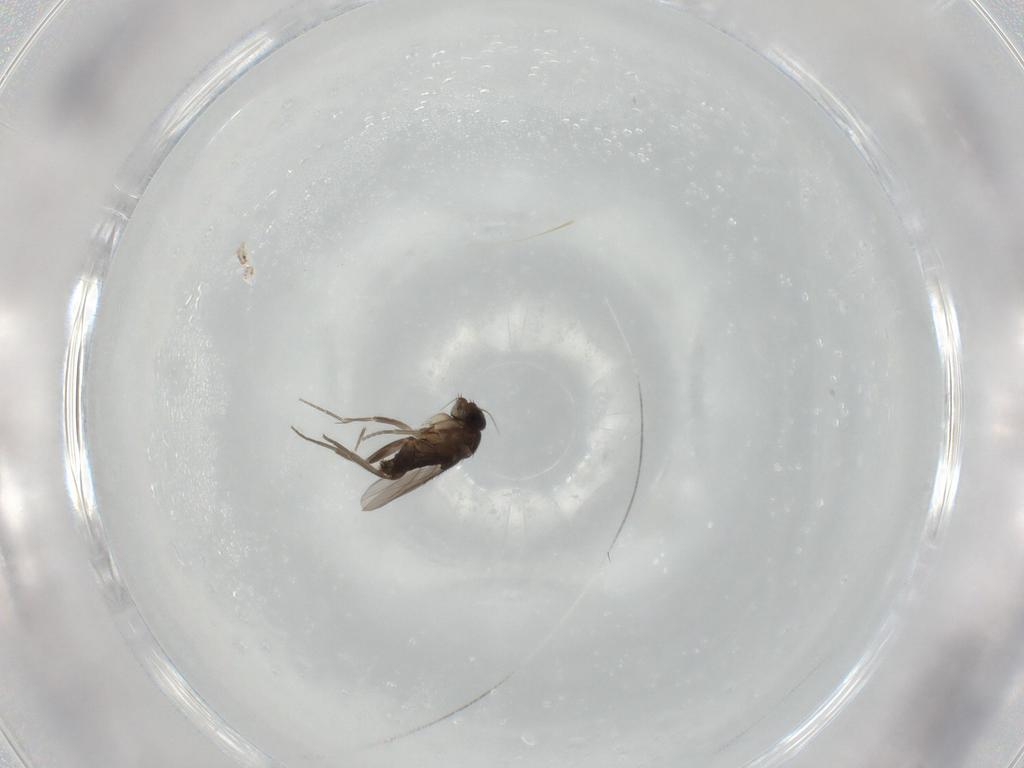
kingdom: Animalia
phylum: Arthropoda
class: Insecta
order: Diptera
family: Phoridae
